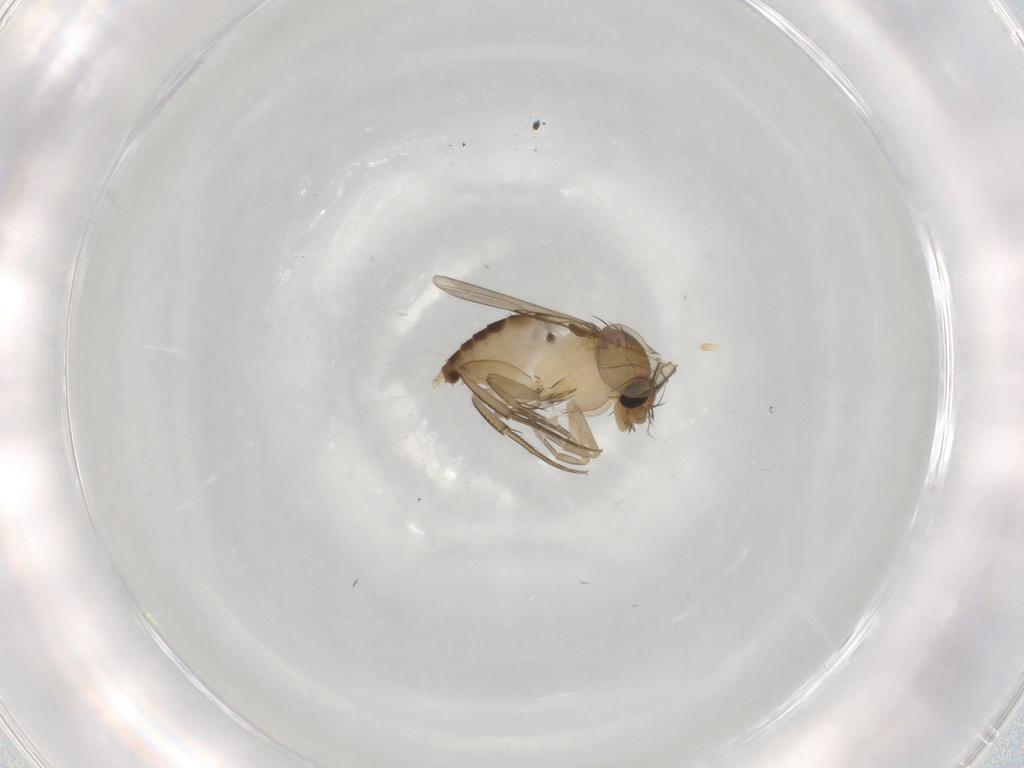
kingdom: Animalia
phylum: Arthropoda
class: Insecta
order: Diptera
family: Phoridae
